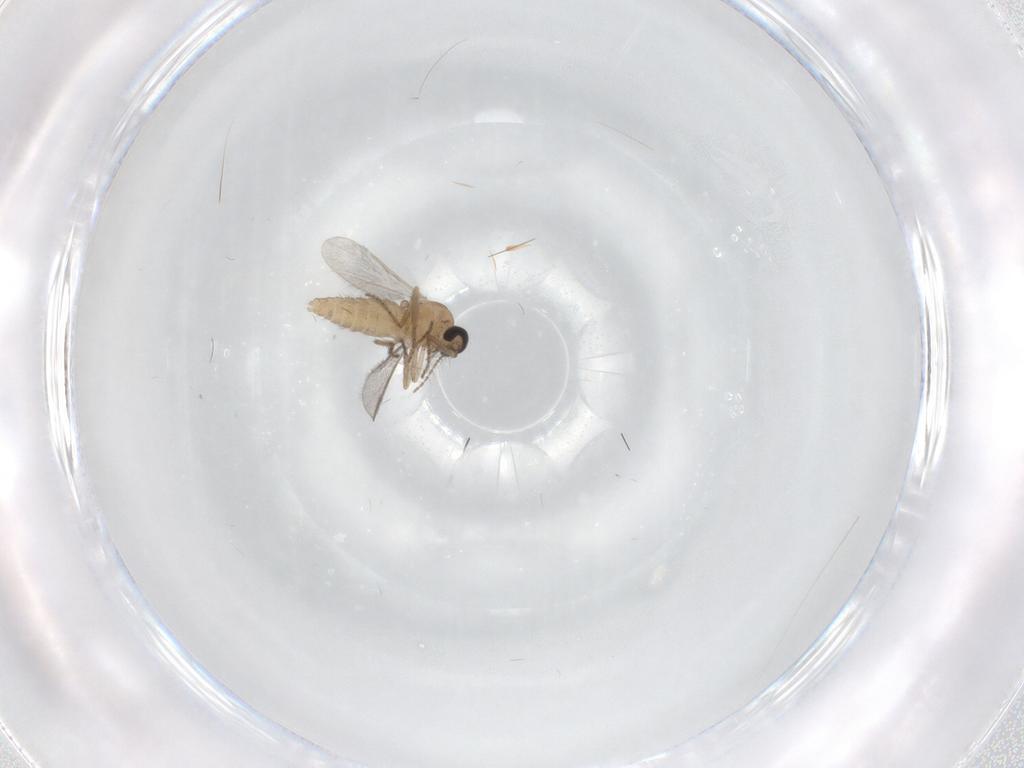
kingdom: Animalia
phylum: Arthropoda
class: Insecta
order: Diptera
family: Ceratopogonidae
